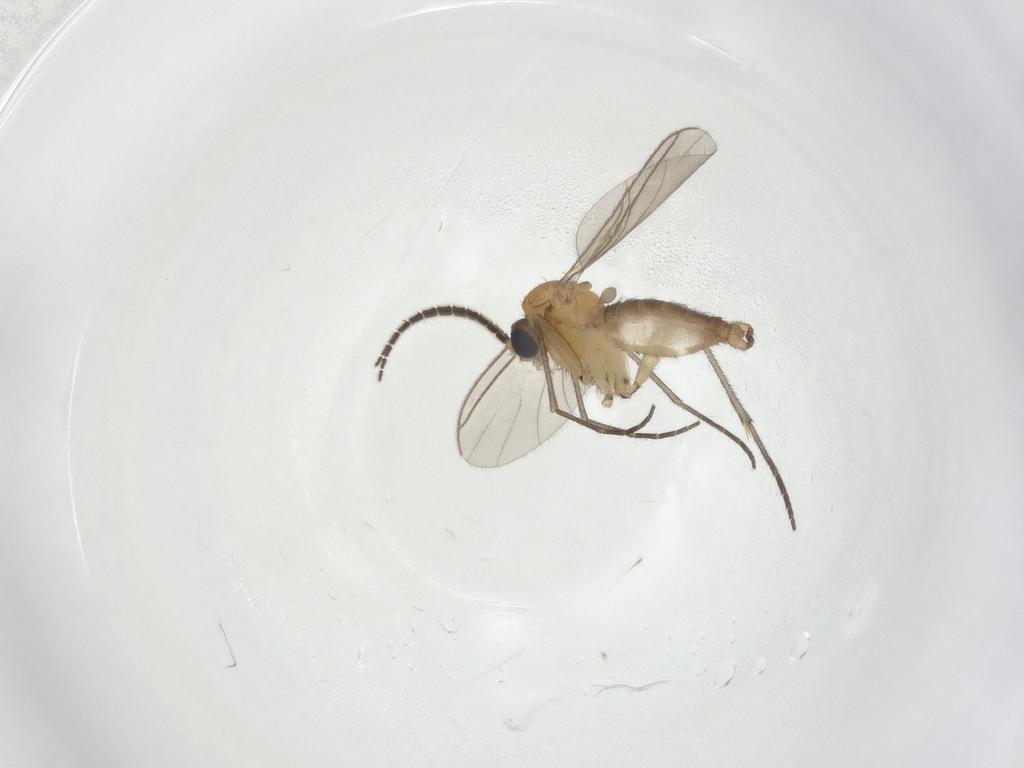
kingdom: Animalia
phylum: Arthropoda
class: Insecta
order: Diptera
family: Sciaridae
